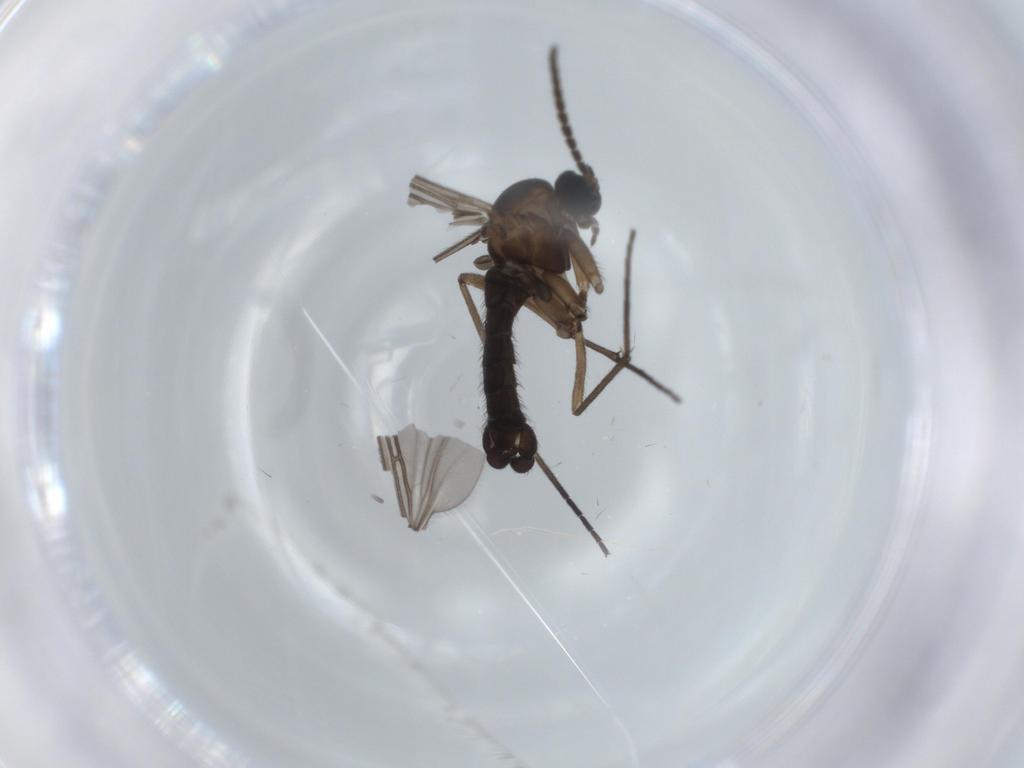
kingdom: Animalia
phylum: Arthropoda
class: Insecta
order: Diptera
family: Sciaridae
